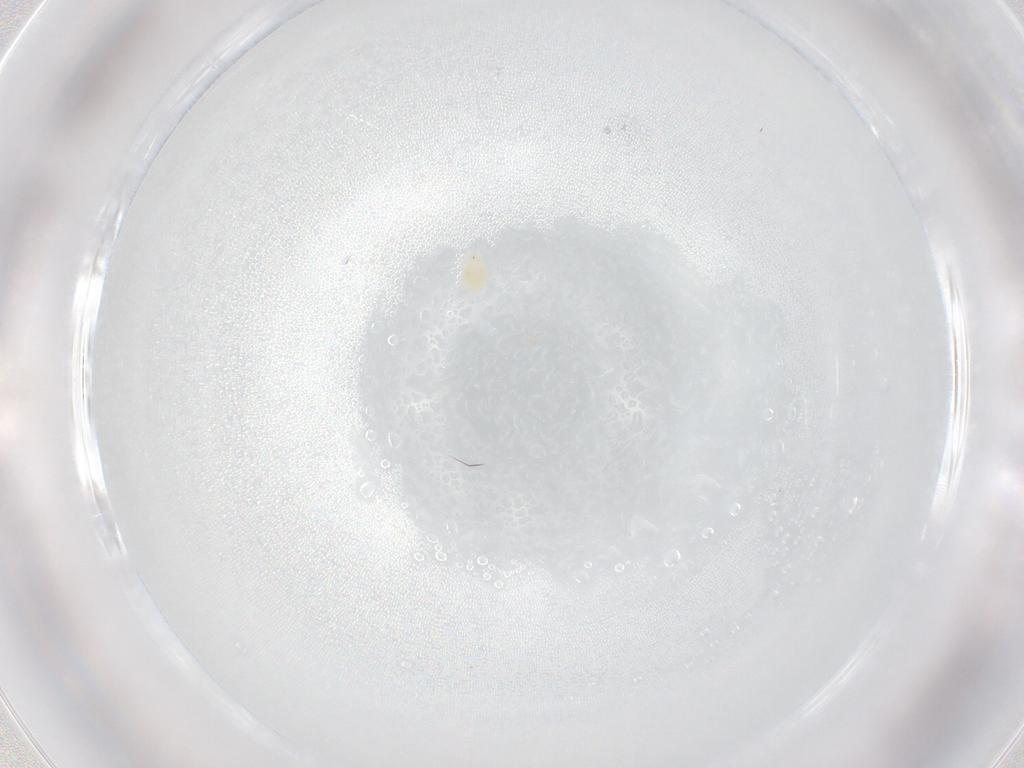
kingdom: Animalia
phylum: Arthropoda
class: Arachnida
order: Trombidiformes
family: Tetranychidae
